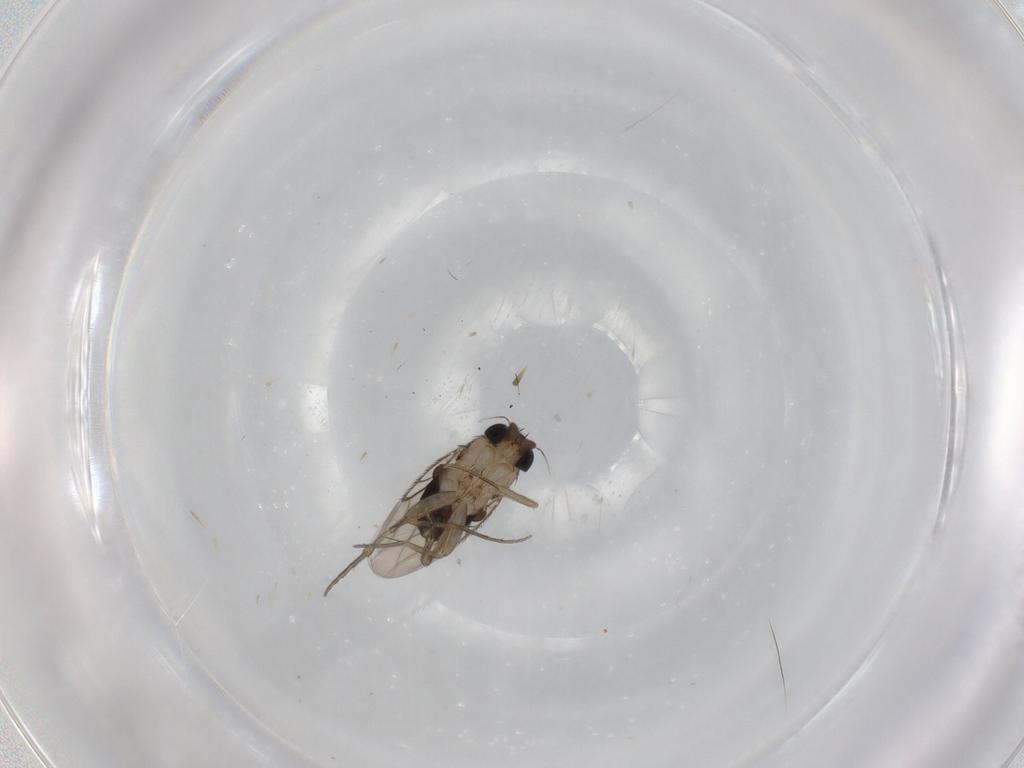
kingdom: Animalia
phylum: Arthropoda
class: Insecta
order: Diptera
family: Phoridae
